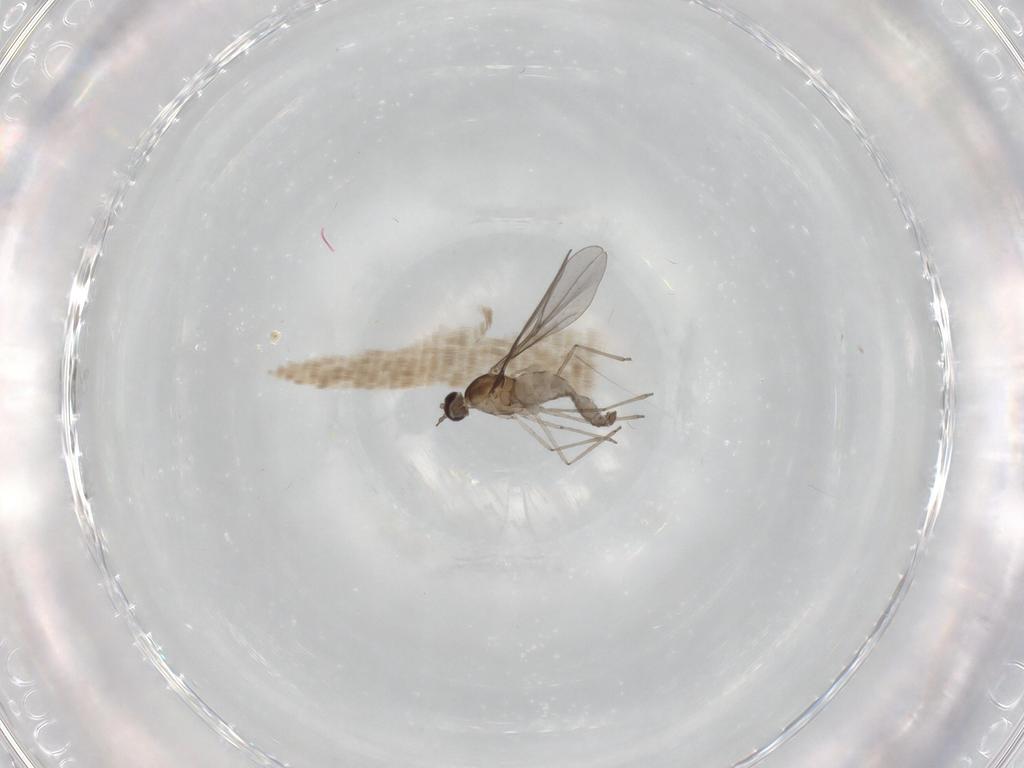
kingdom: Animalia
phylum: Arthropoda
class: Insecta
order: Diptera
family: Cecidomyiidae
